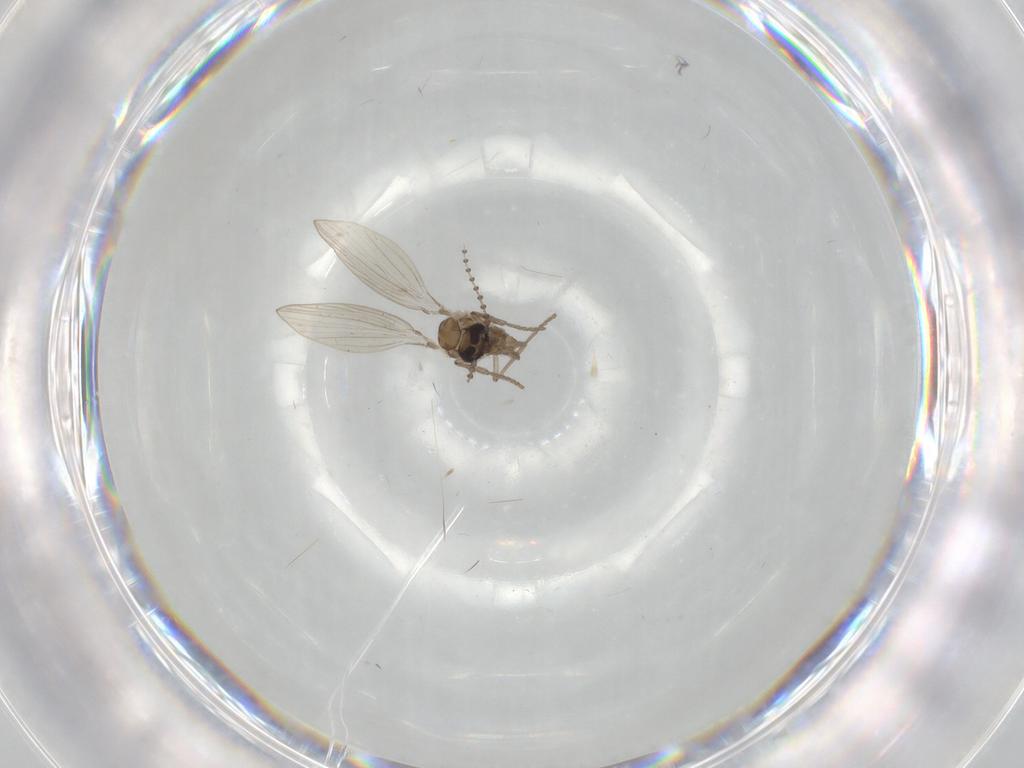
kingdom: Animalia
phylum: Arthropoda
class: Insecta
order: Diptera
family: Psychodidae
